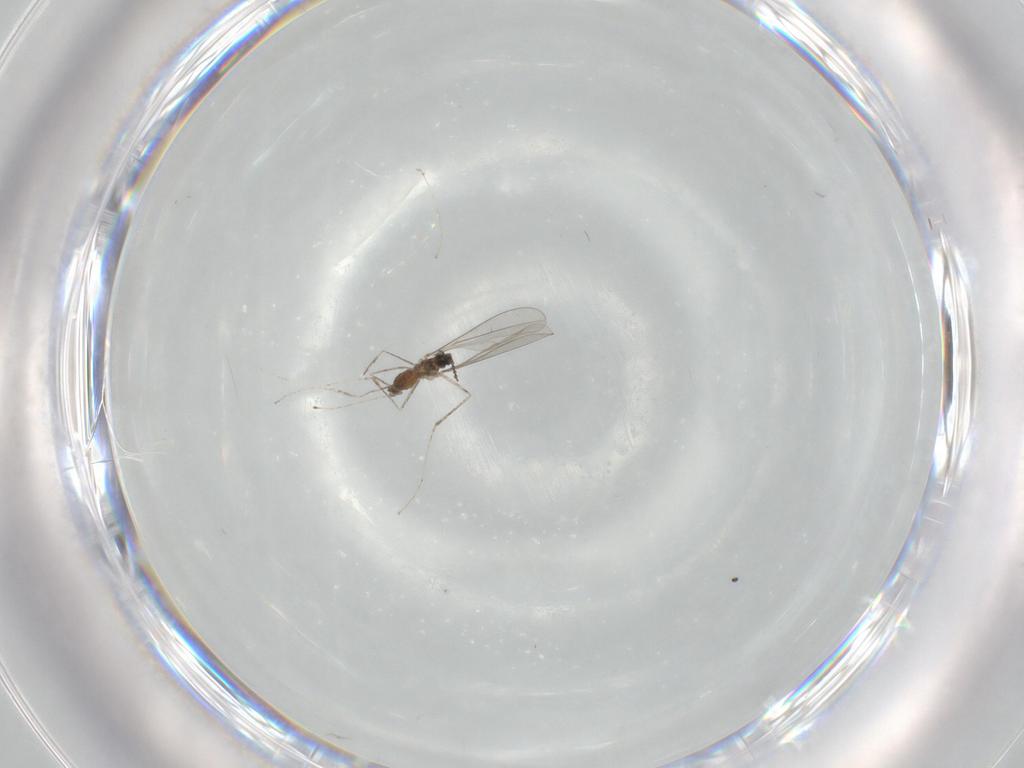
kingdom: Animalia
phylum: Arthropoda
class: Insecta
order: Diptera
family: Cecidomyiidae
